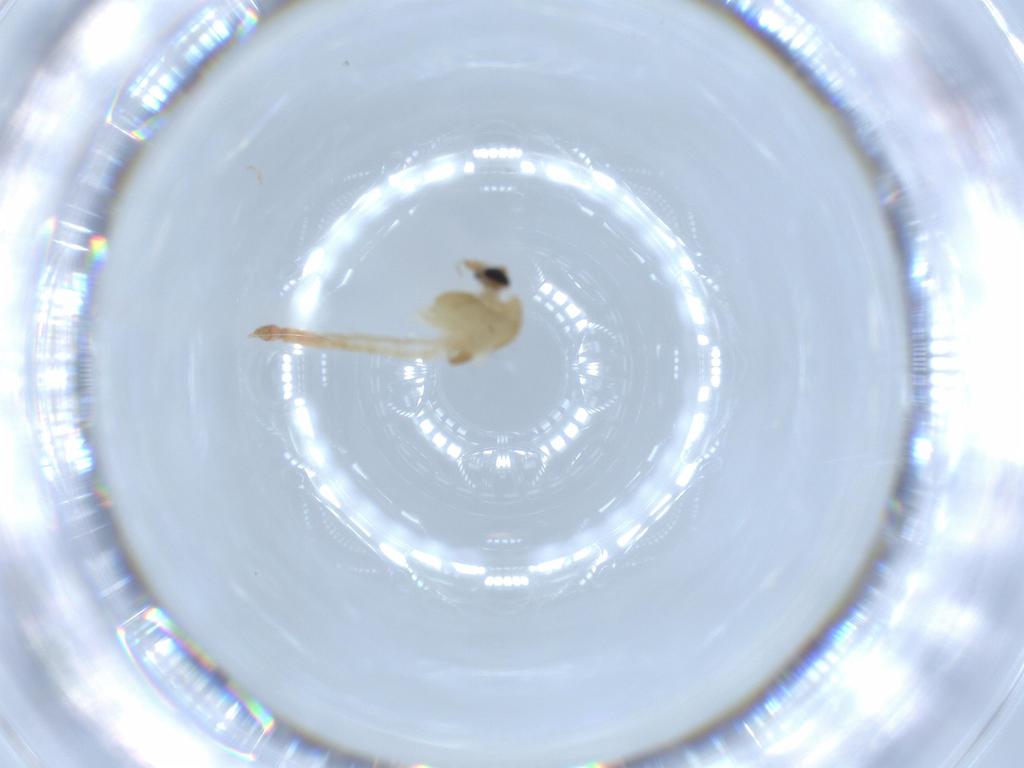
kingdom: Animalia
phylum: Arthropoda
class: Insecta
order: Diptera
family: Chironomidae
